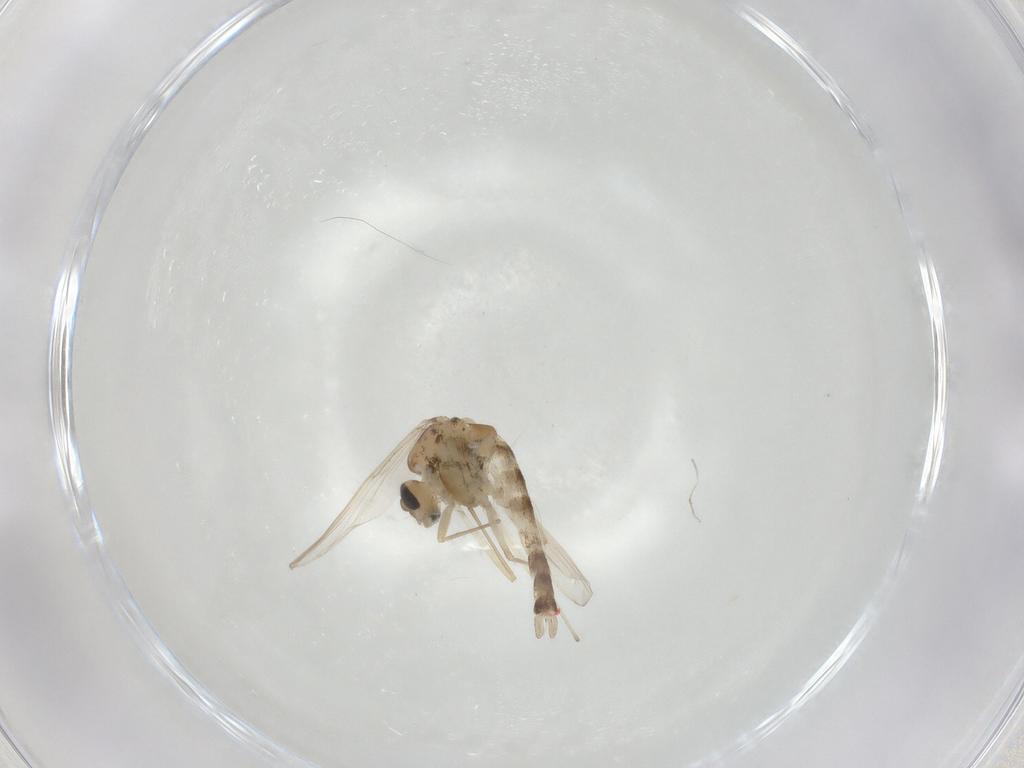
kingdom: Animalia
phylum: Arthropoda
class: Insecta
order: Diptera
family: Chironomidae
